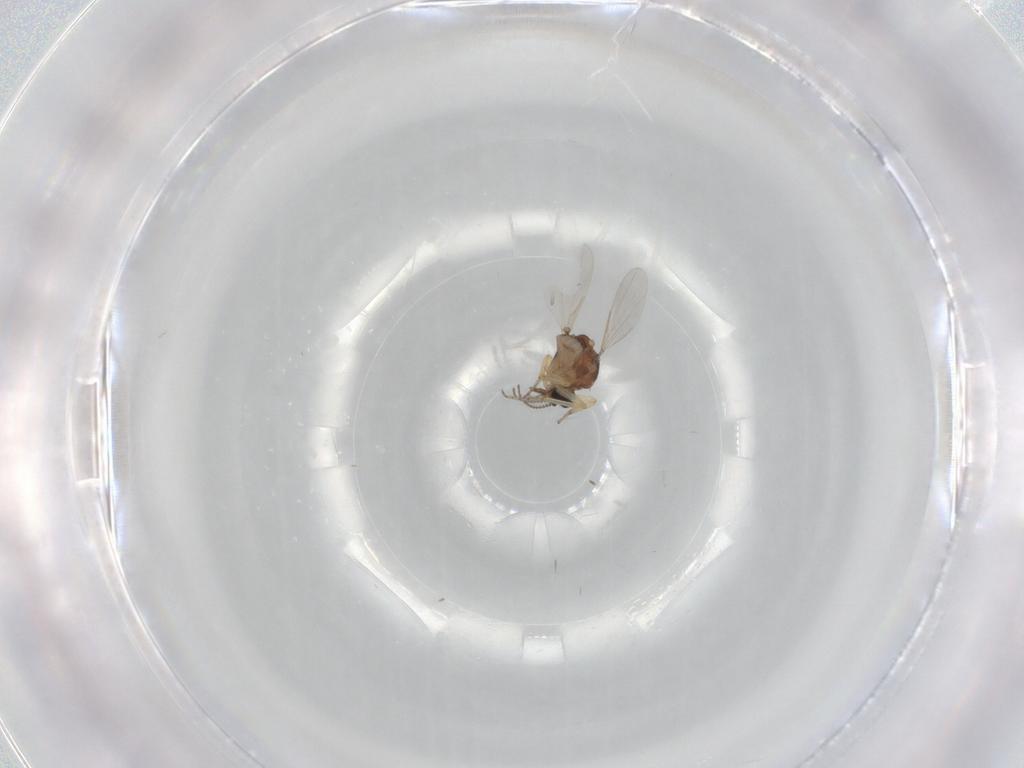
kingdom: Animalia
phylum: Arthropoda
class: Insecta
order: Diptera
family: Ceratopogonidae
